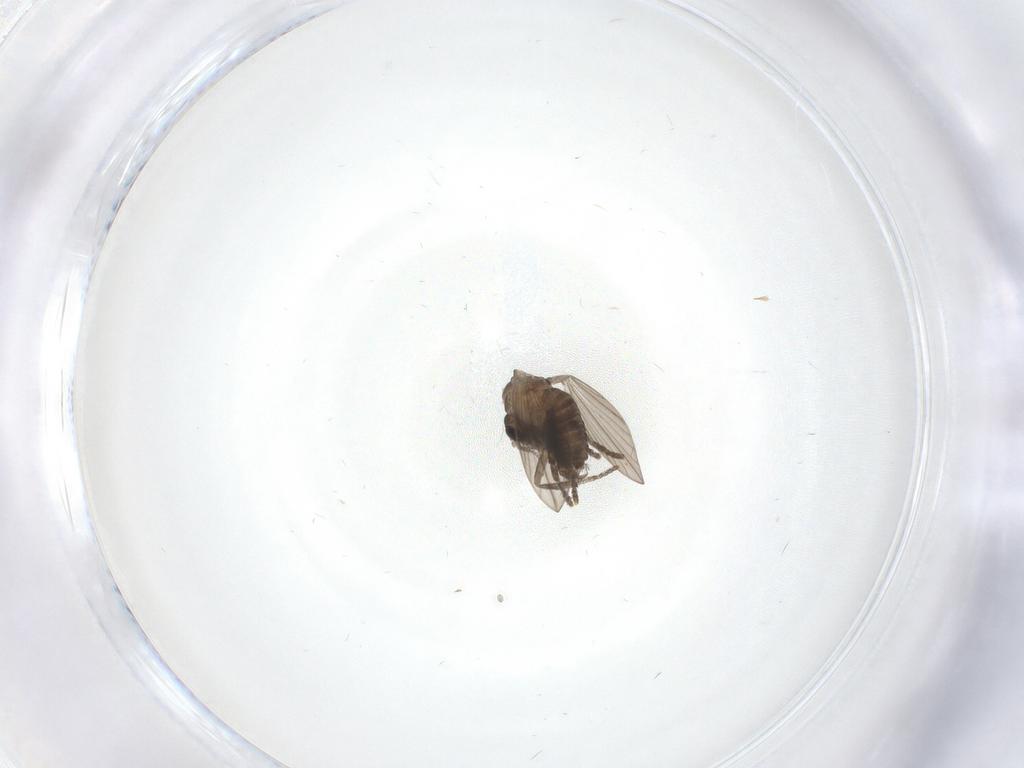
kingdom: Animalia
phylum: Arthropoda
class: Insecta
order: Diptera
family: Psychodidae
